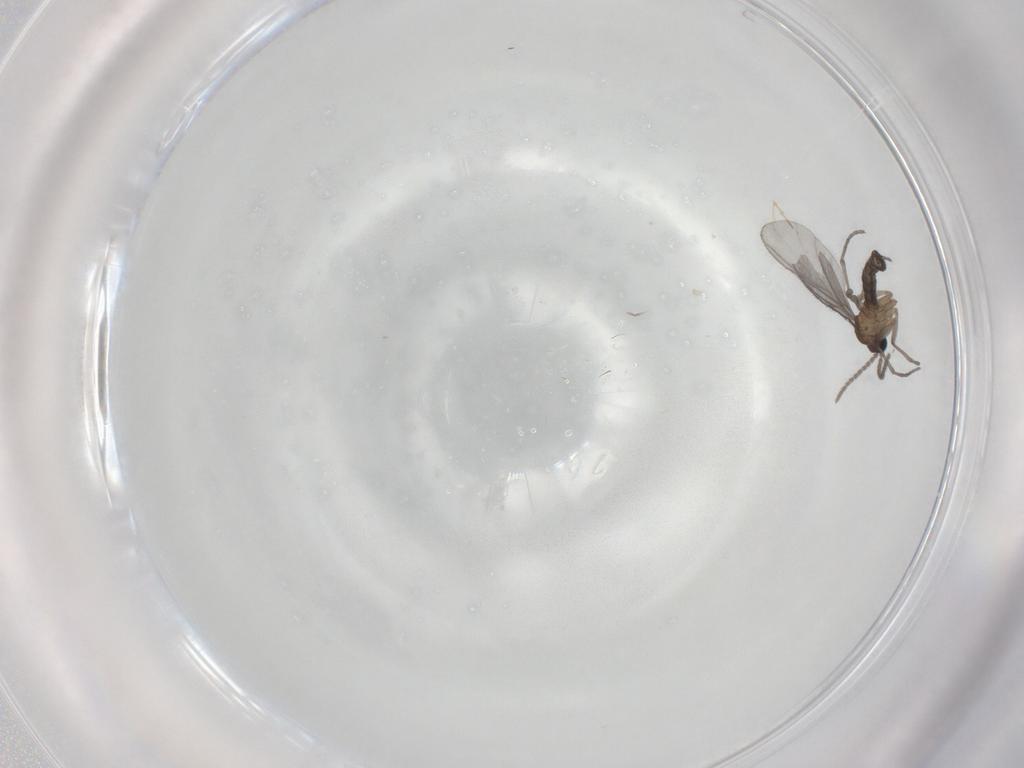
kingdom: Animalia
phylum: Arthropoda
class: Insecta
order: Diptera
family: Sciaridae
